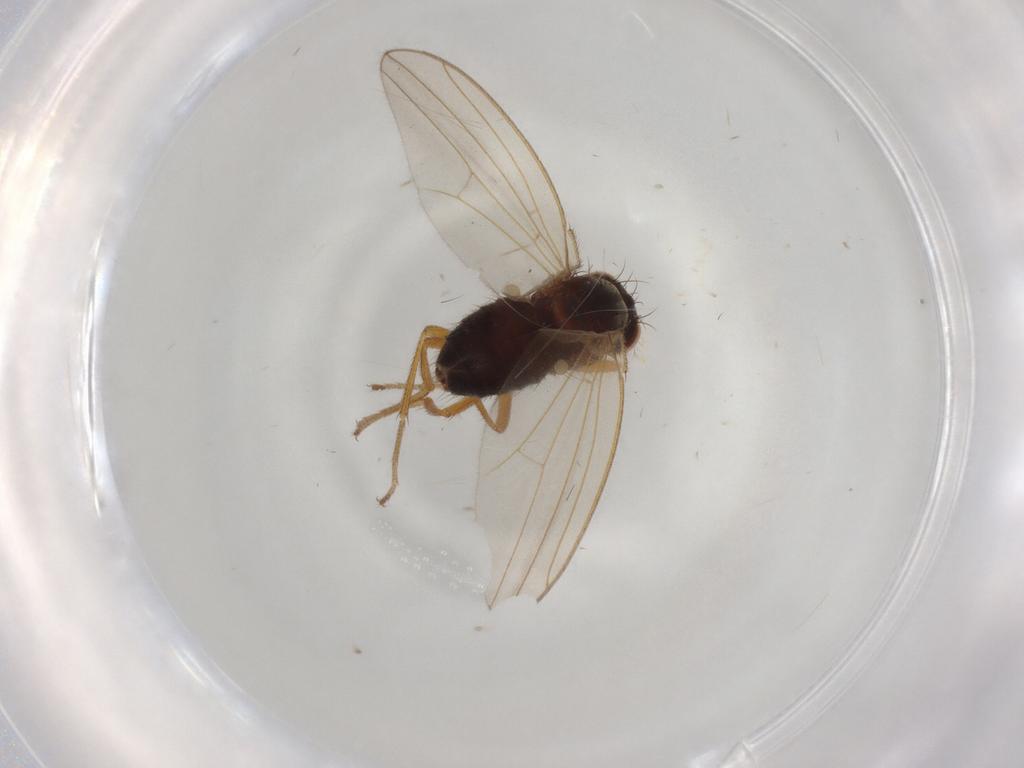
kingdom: Animalia
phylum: Arthropoda
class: Insecta
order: Diptera
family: Drosophilidae
